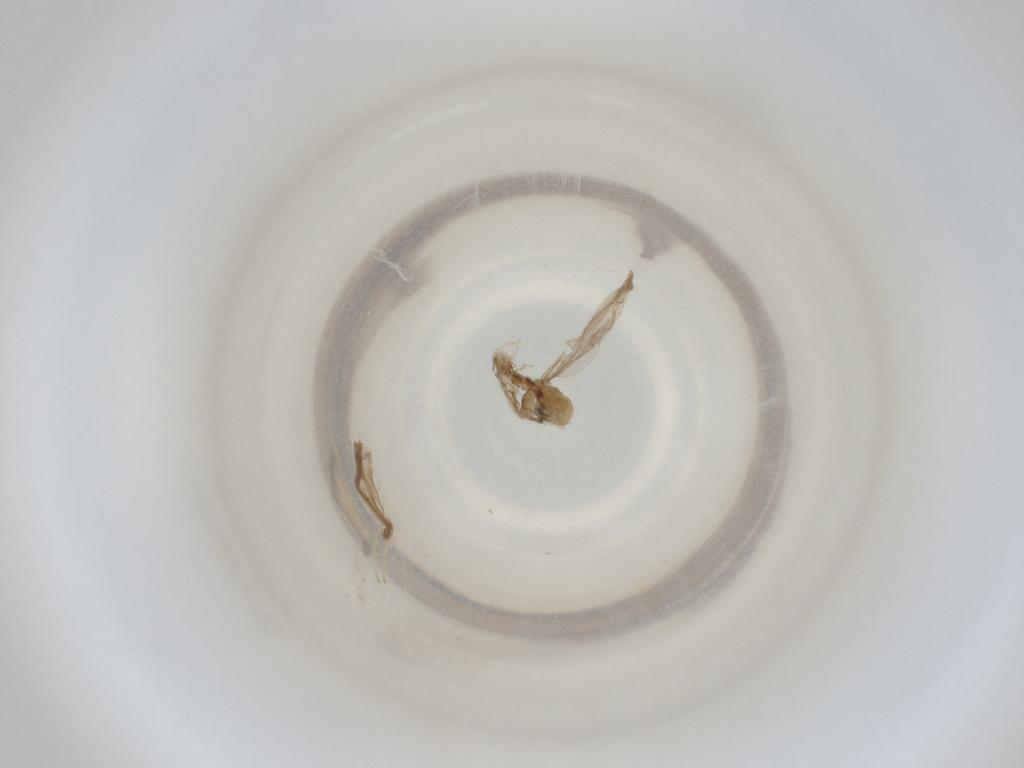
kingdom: Animalia
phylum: Arthropoda
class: Insecta
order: Diptera
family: Cecidomyiidae
